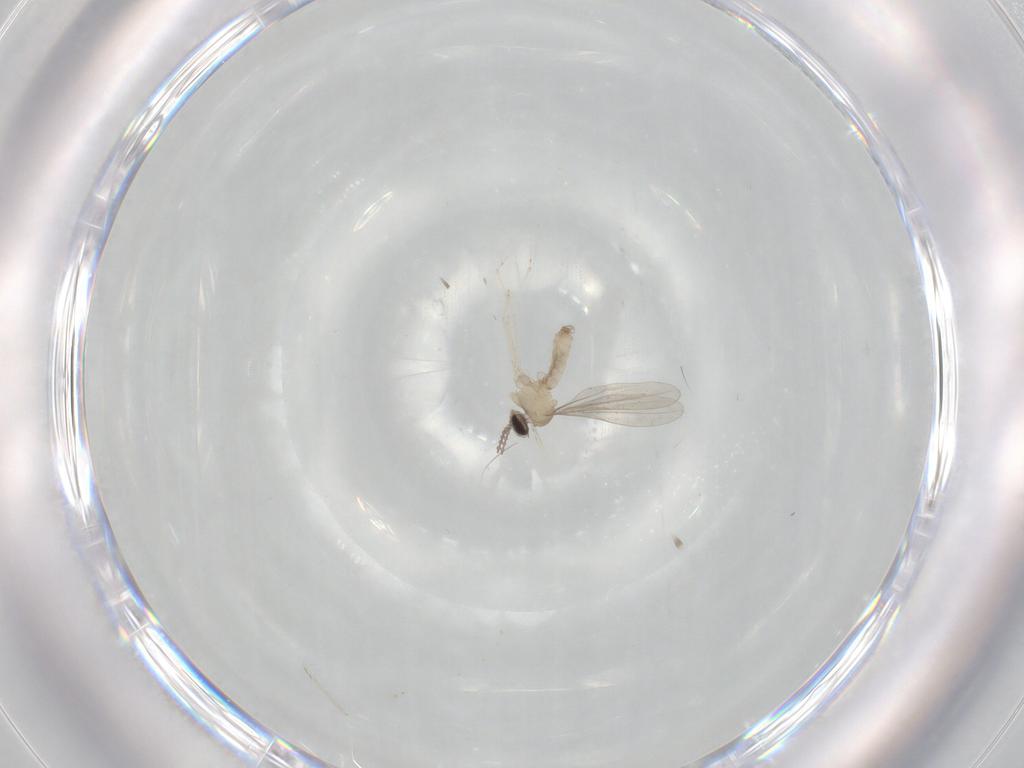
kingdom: Animalia
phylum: Arthropoda
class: Insecta
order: Diptera
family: Cecidomyiidae
